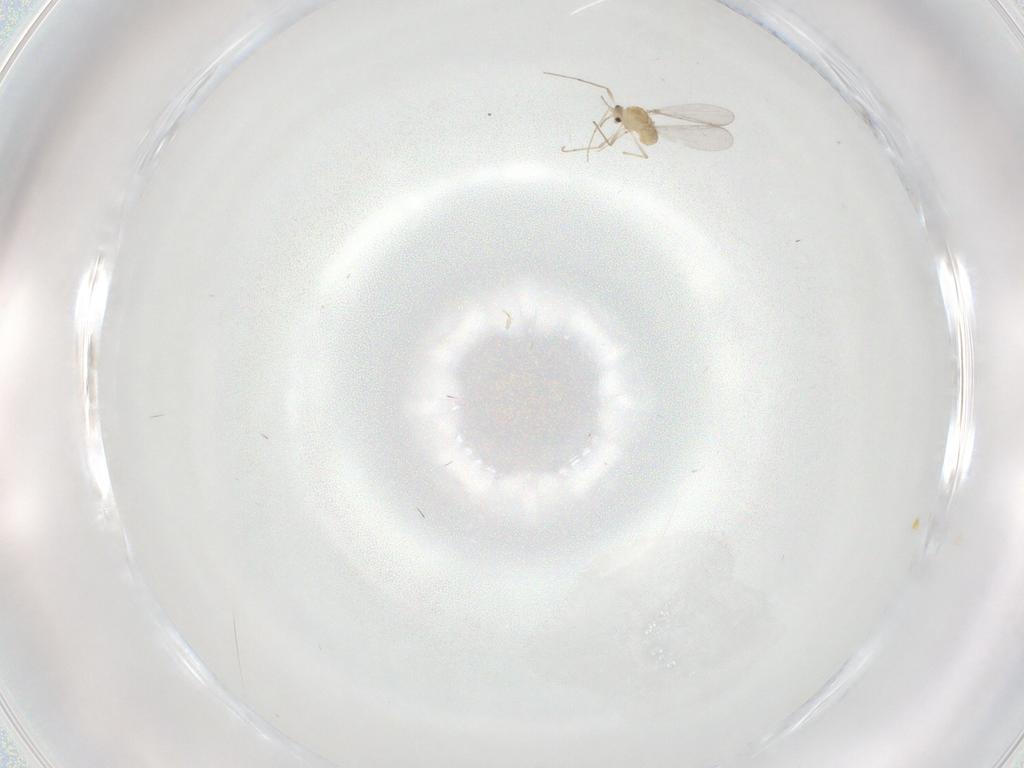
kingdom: Animalia
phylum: Arthropoda
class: Insecta
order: Diptera
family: Chironomidae
